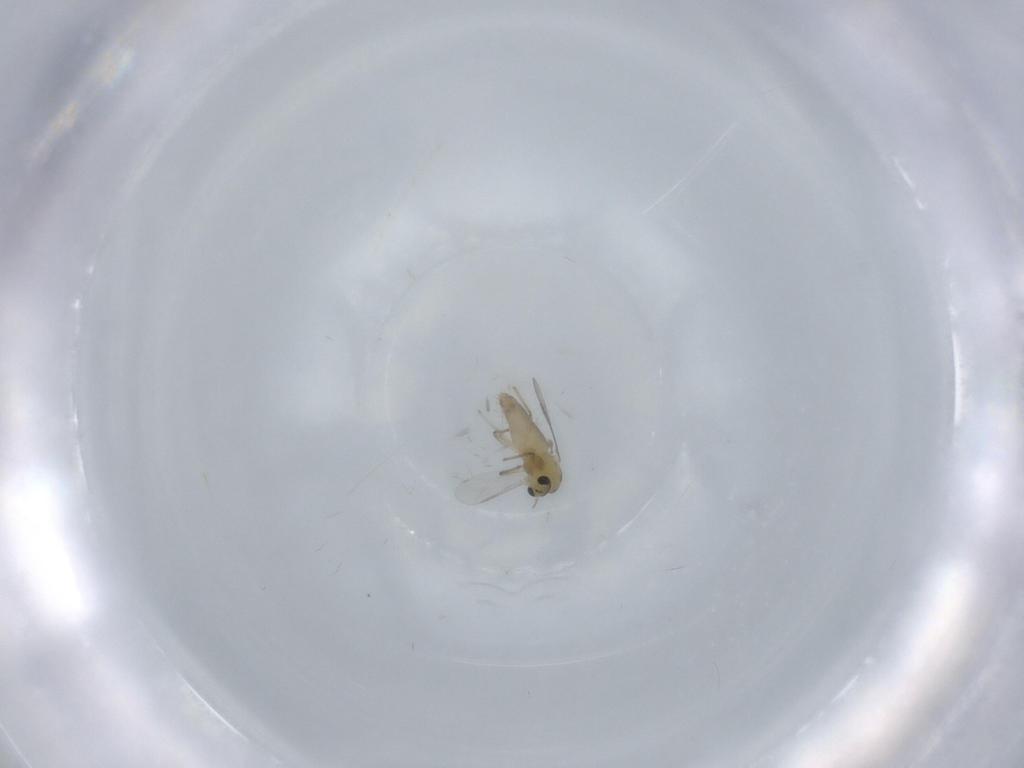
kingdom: Animalia
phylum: Arthropoda
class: Insecta
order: Diptera
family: Chironomidae
